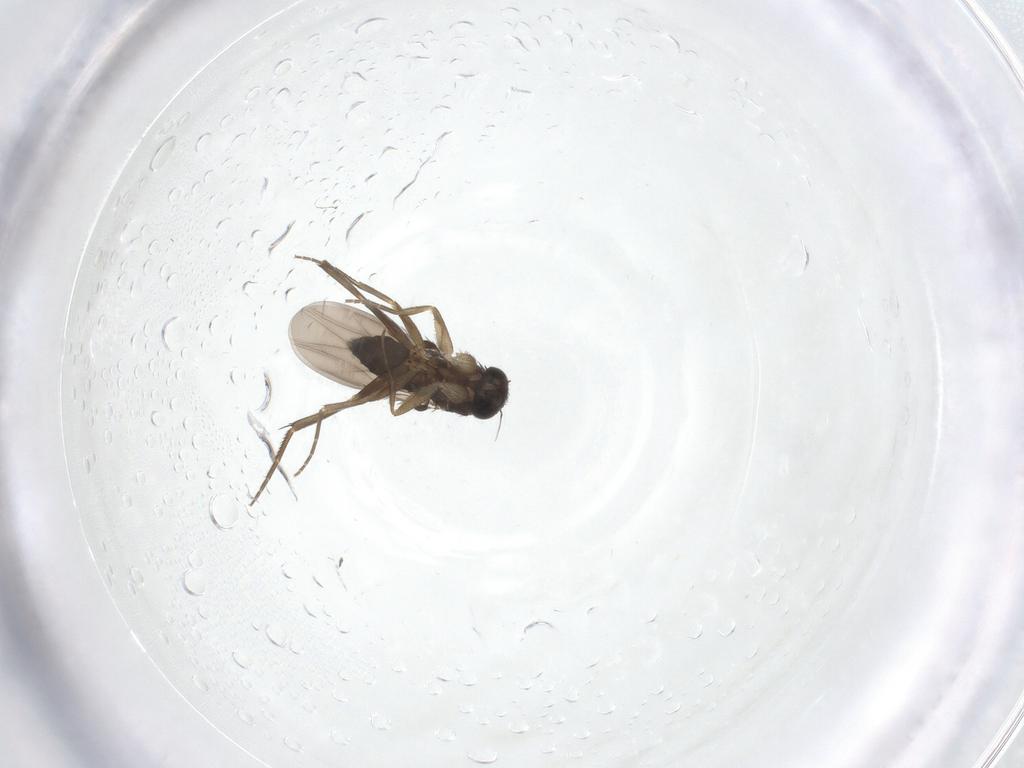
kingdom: Animalia
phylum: Arthropoda
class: Insecta
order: Diptera
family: Phoridae
